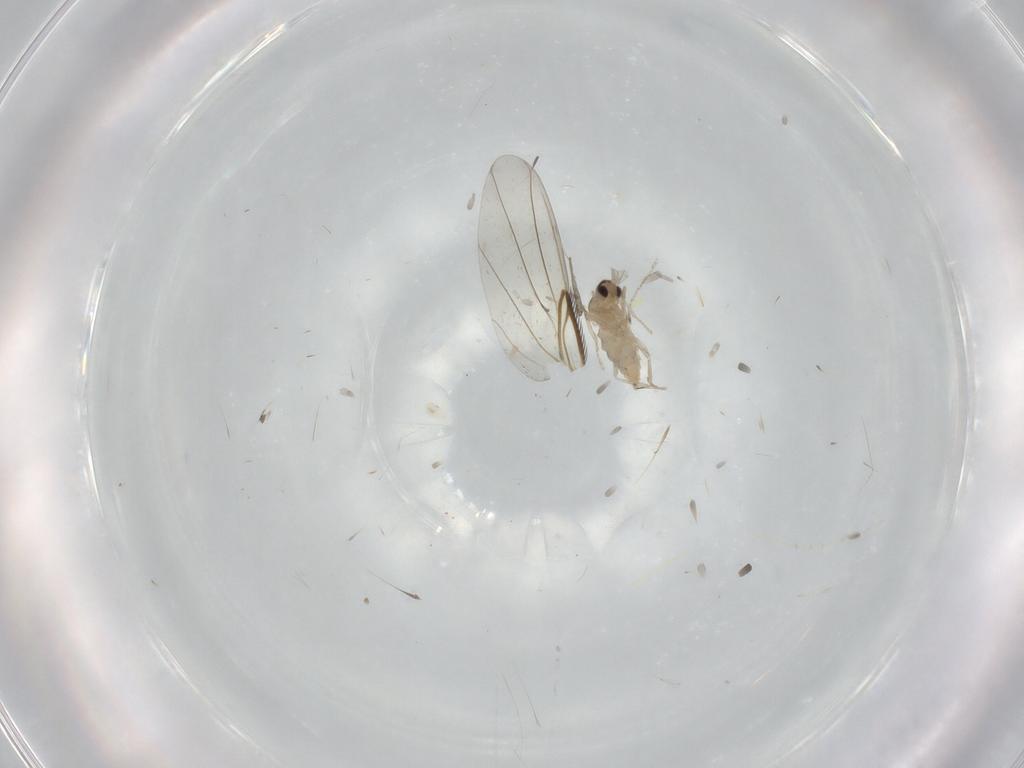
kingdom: Animalia
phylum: Arthropoda
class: Insecta
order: Diptera
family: Cecidomyiidae
